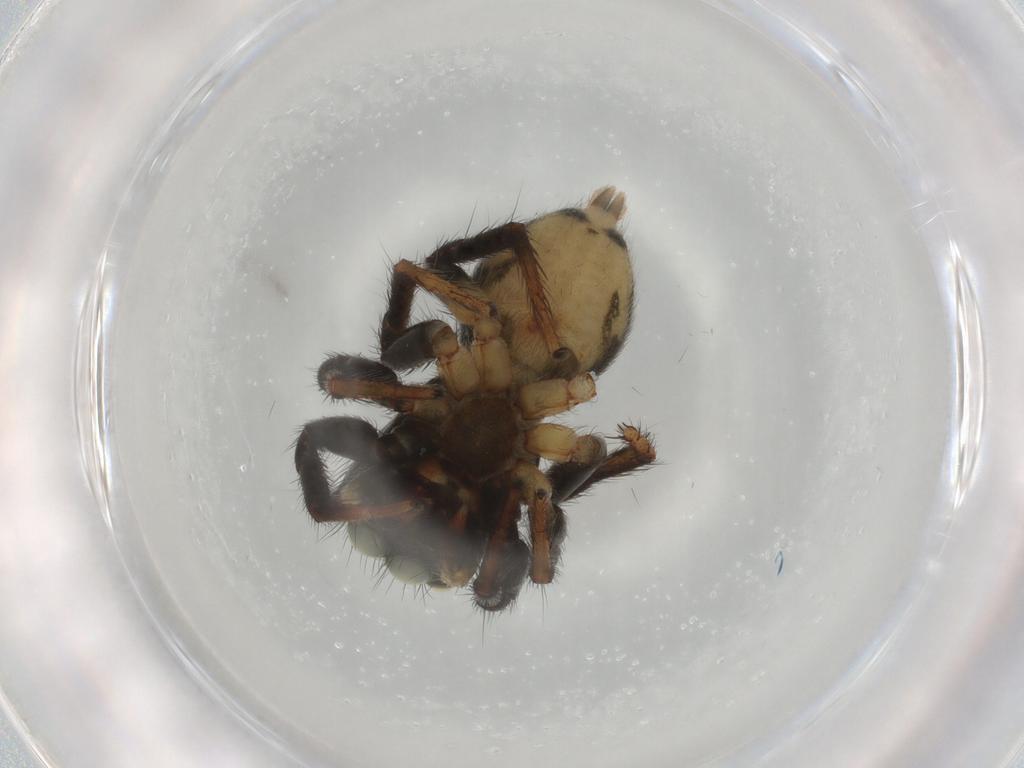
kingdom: Animalia
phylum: Arthropoda
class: Arachnida
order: Araneae
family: Salticidae
